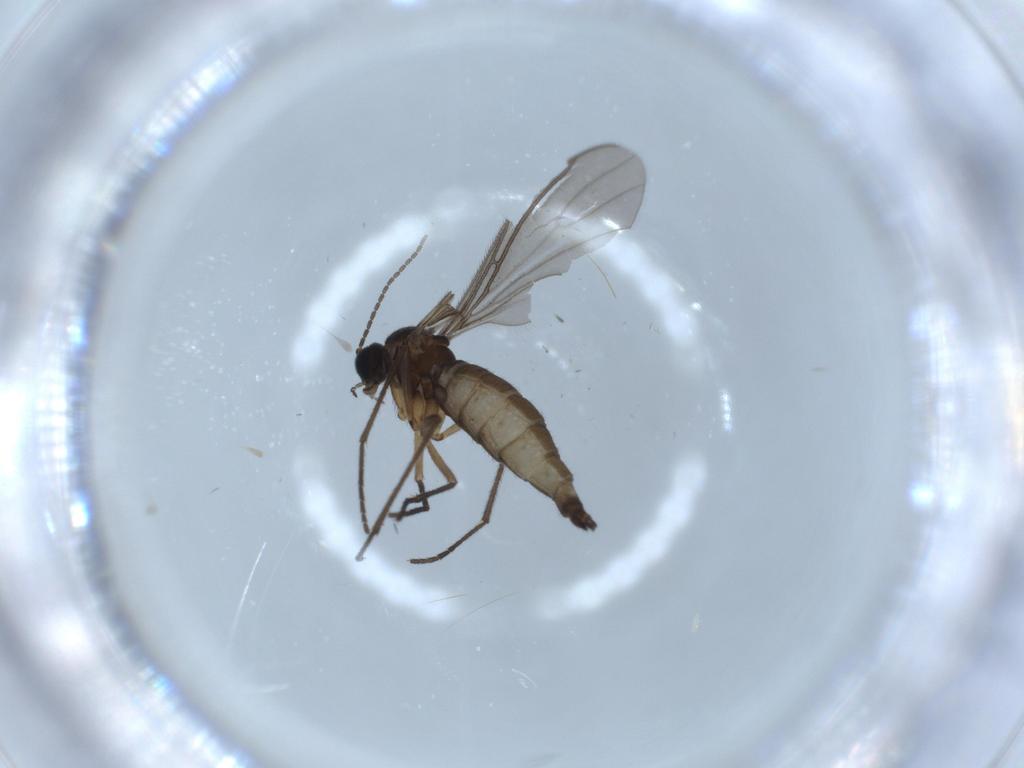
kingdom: Animalia
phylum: Arthropoda
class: Insecta
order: Diptera
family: Sciaridae
